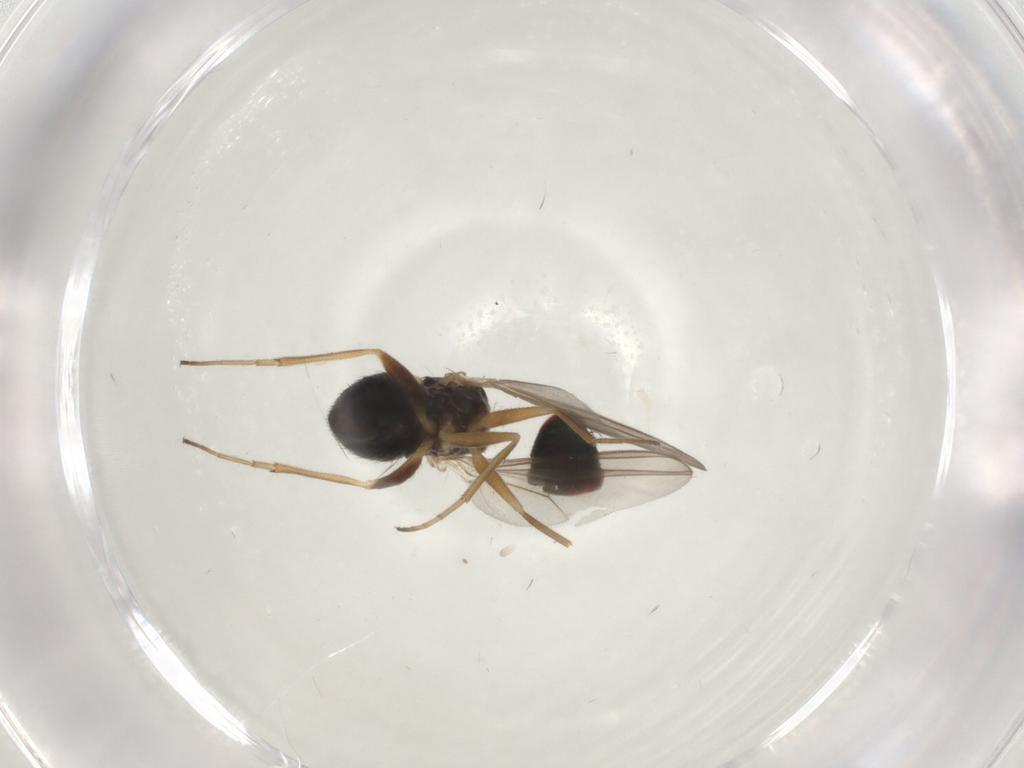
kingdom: Animalia
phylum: Arthropoda
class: Insecta
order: Diptera
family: Dolichopodidae
